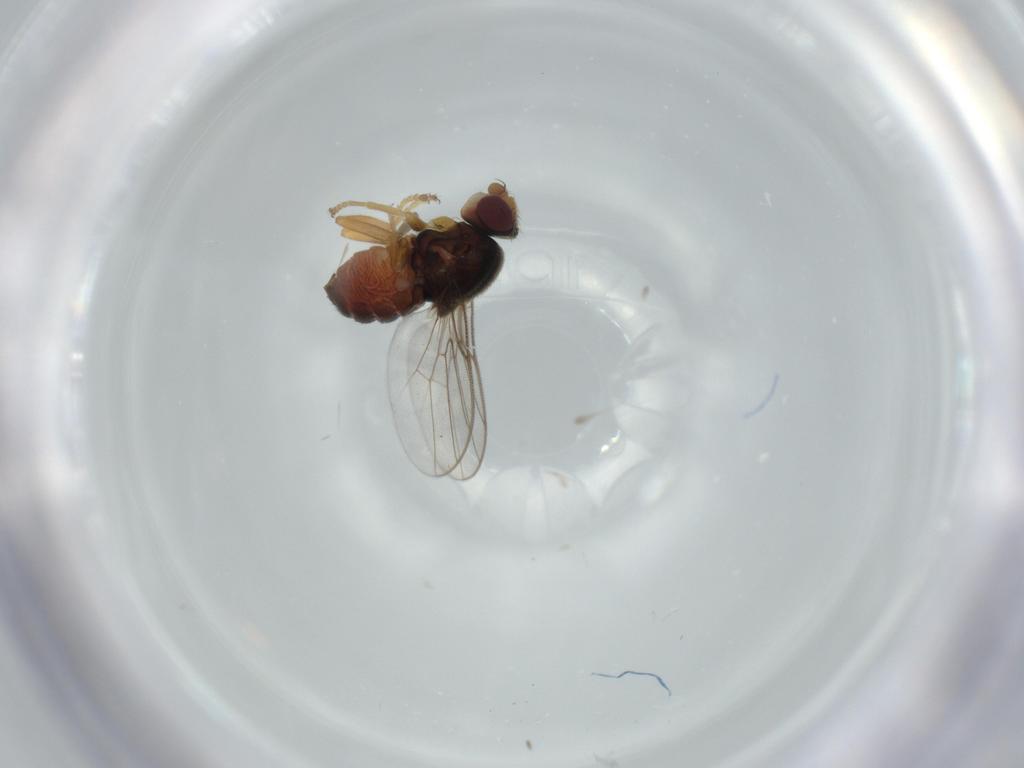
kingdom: Animalia
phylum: Arthropoda
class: Insecta
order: Diptera
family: Chloropidae
